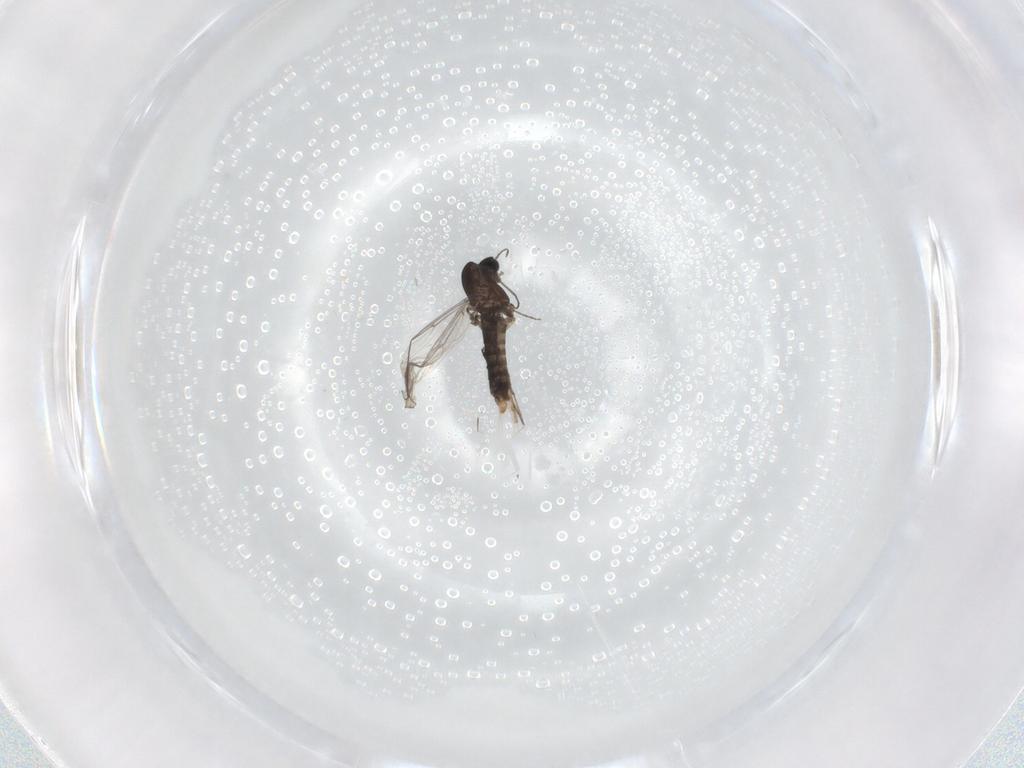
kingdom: Animalia
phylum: Arthropoda
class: Insecta
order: Diptera
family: Chironomidae
